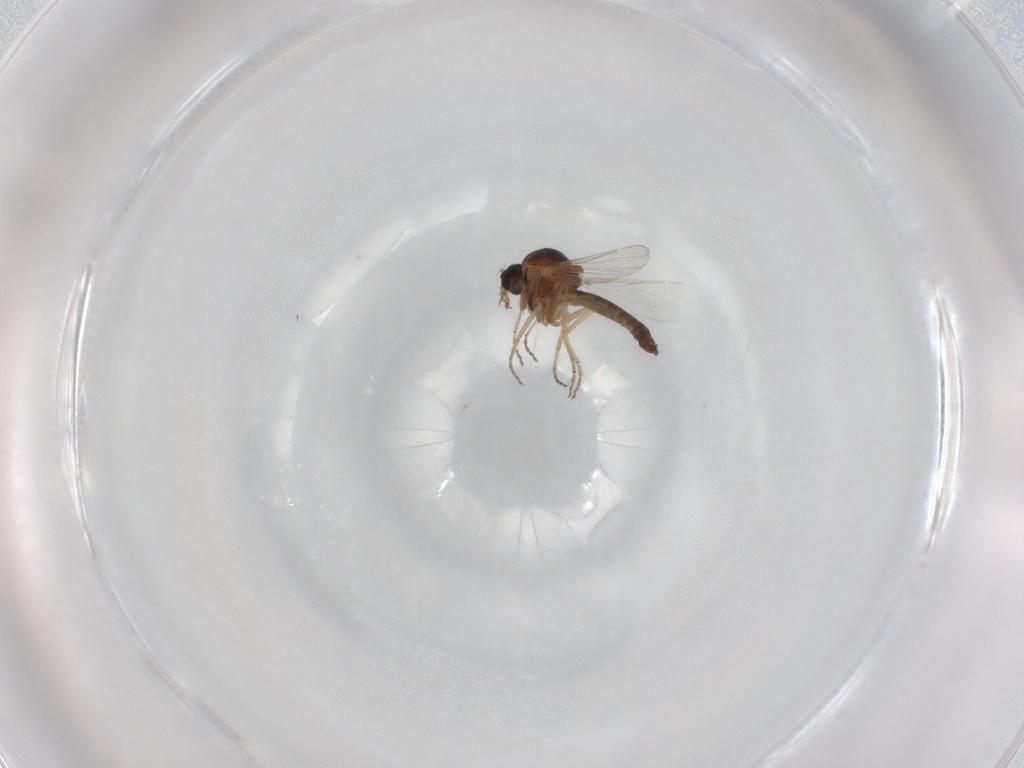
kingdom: Animalia
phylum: Arthropoda
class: Insecta
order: Diptera
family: Ceratopogonidae
